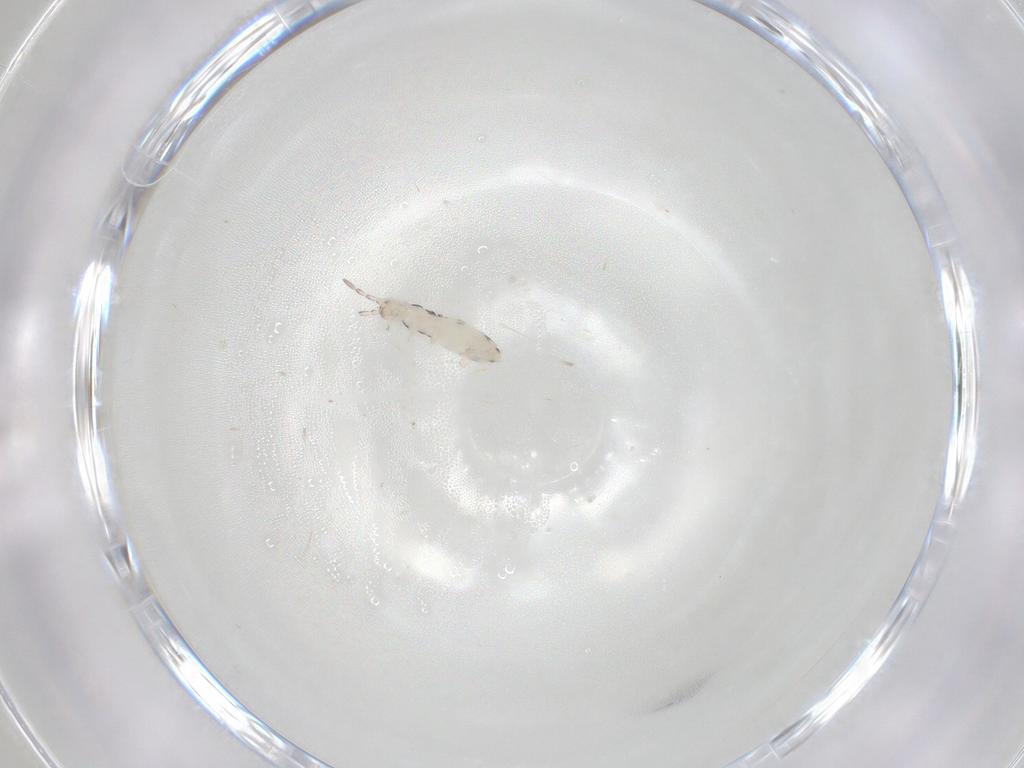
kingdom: Animalia
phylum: Arthropoda
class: Collembola
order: Entomobryomorpha
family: Entomobryidae
